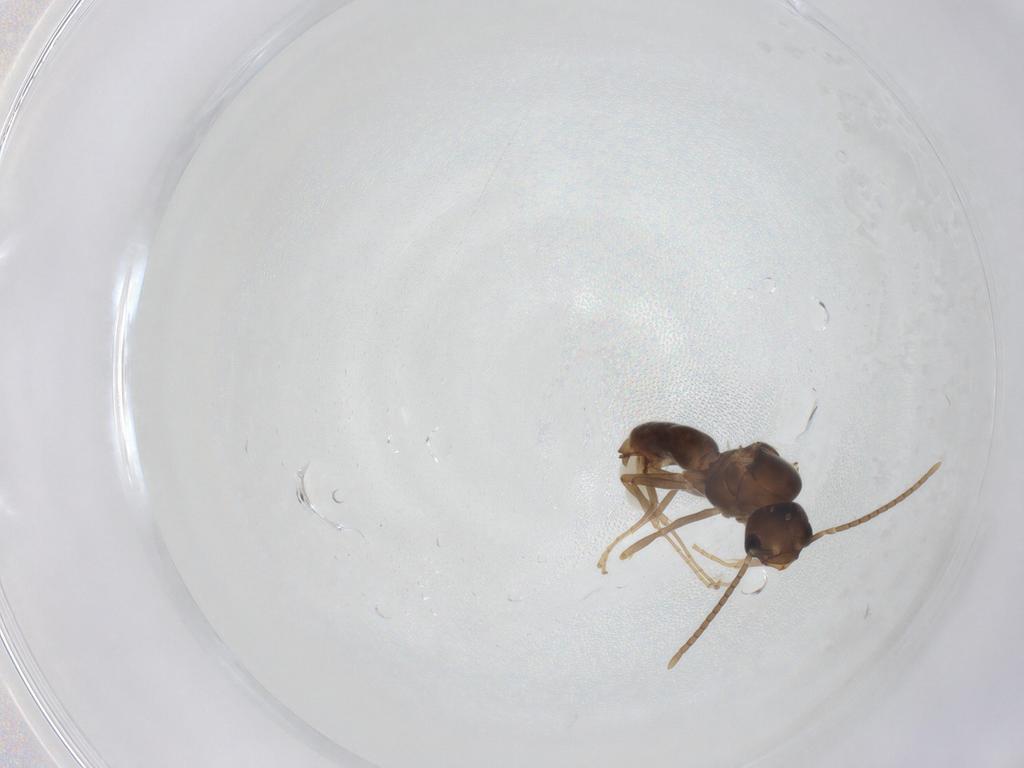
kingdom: Animalia
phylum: Arthropoda
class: Insecta
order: Hymenoptera
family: Formicidae
